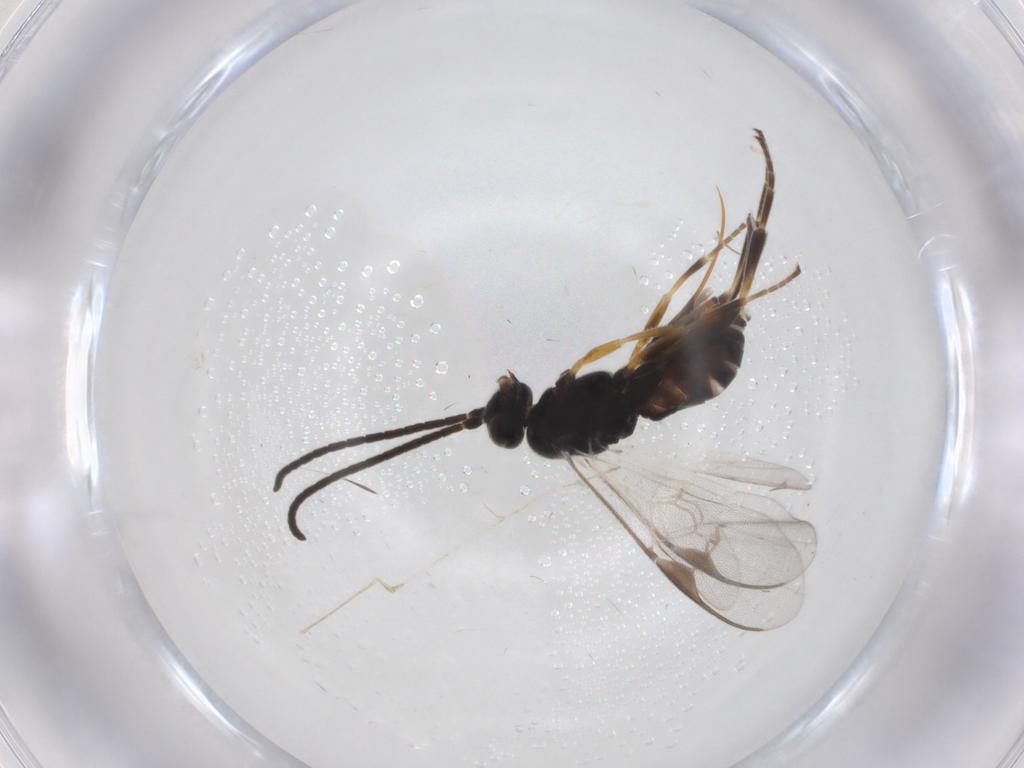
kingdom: Animalia
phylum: Arthropoda
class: Insecta
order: Hymenoptera
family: Braconidae
